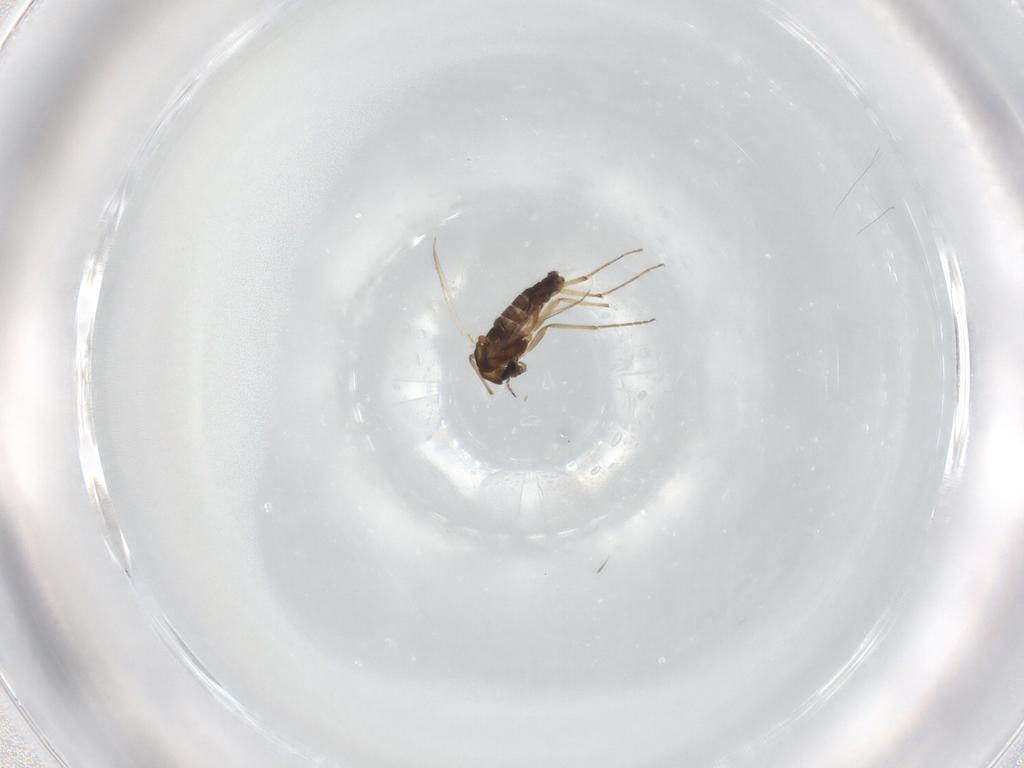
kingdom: Animalia
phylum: Arthropoda
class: Insecta
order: Diptera
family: Chironomidae
